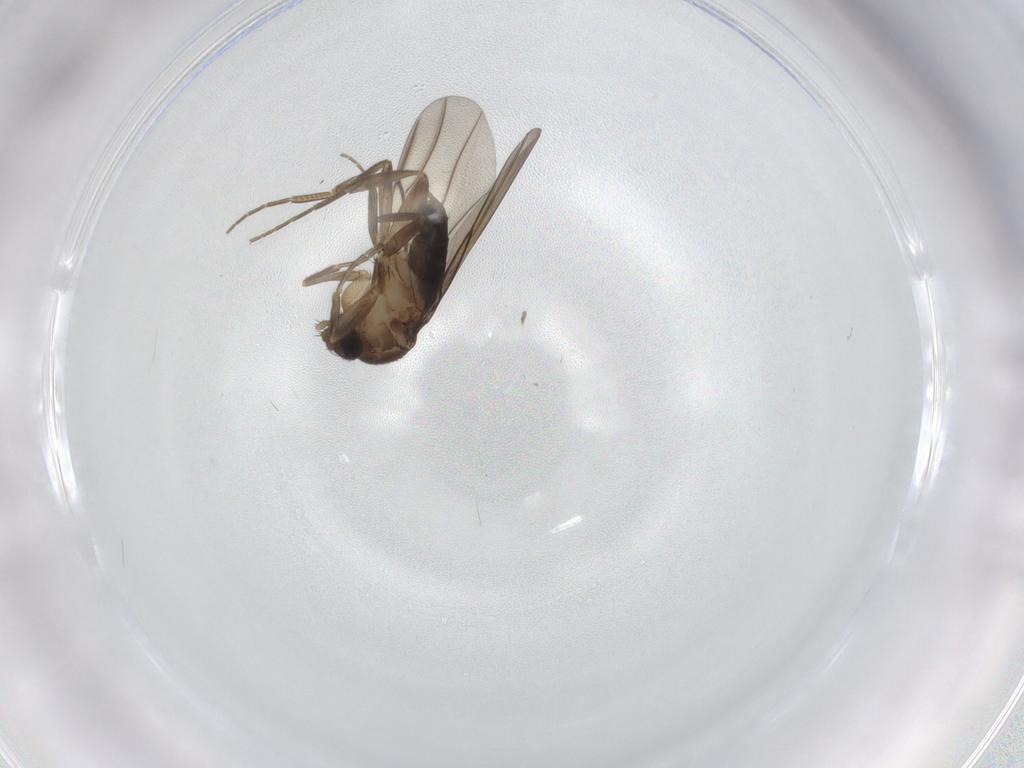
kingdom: Animalia
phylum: Arthropoda
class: Insecta
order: Diptera
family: Phoridae
